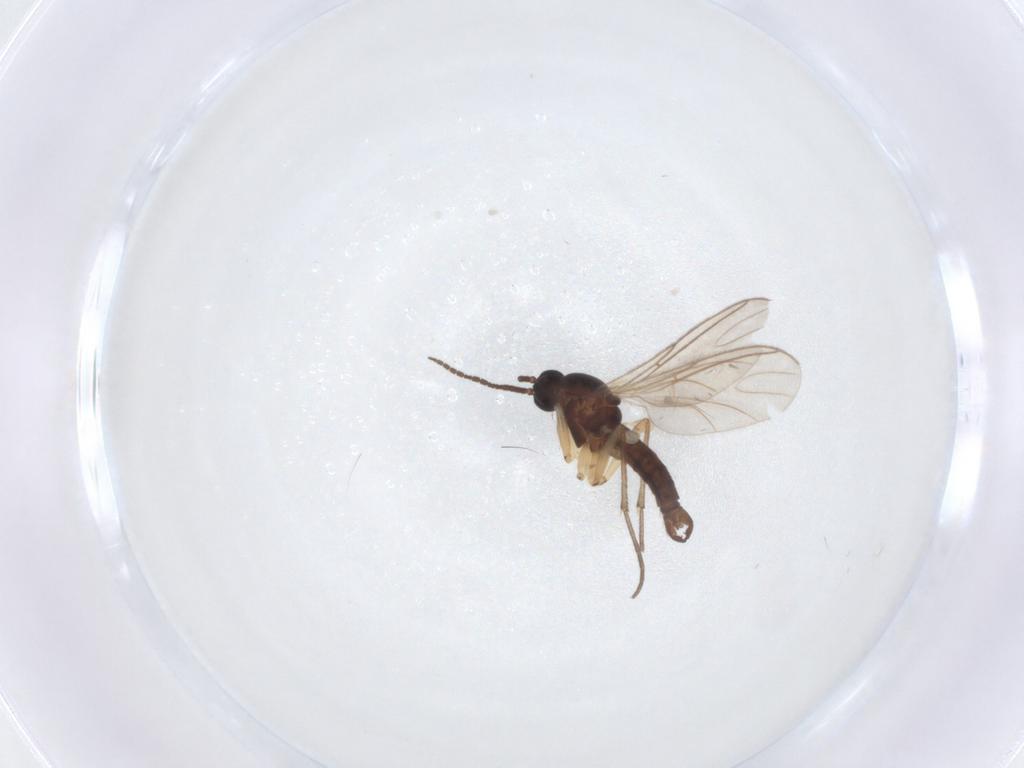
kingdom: Animalia
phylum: Arthropoda
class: Insecta
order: Diptera
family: Sciaridae
